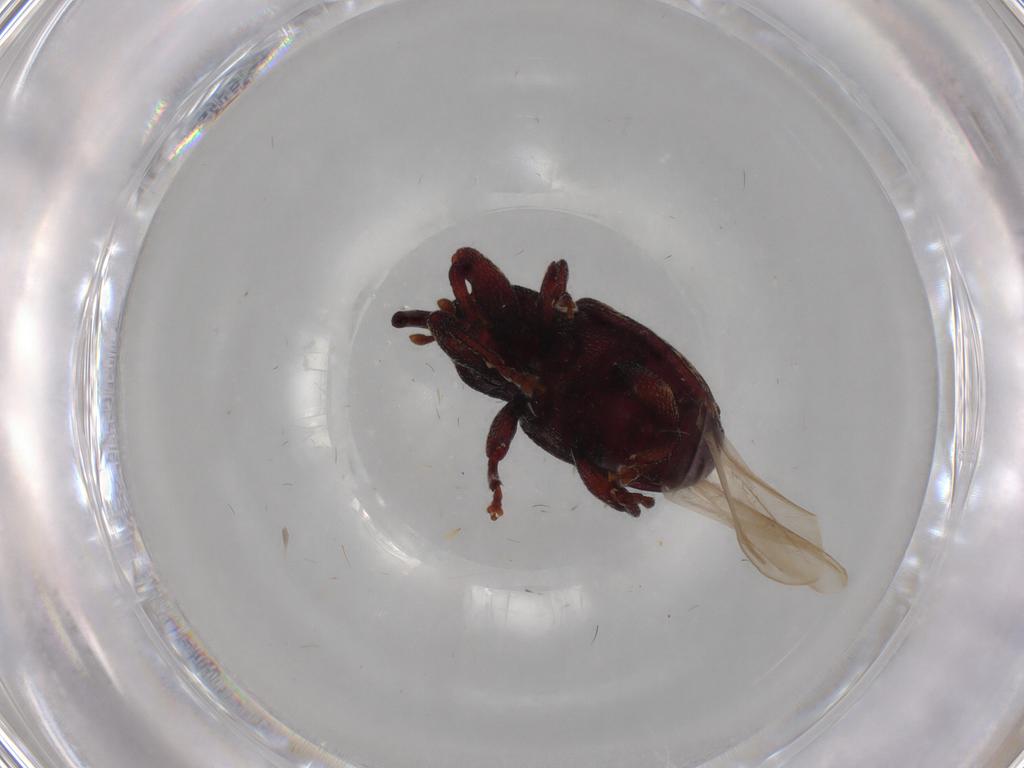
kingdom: Animalia
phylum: Arthropoda
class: Insecta
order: Coleoptera
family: Curculionidae
